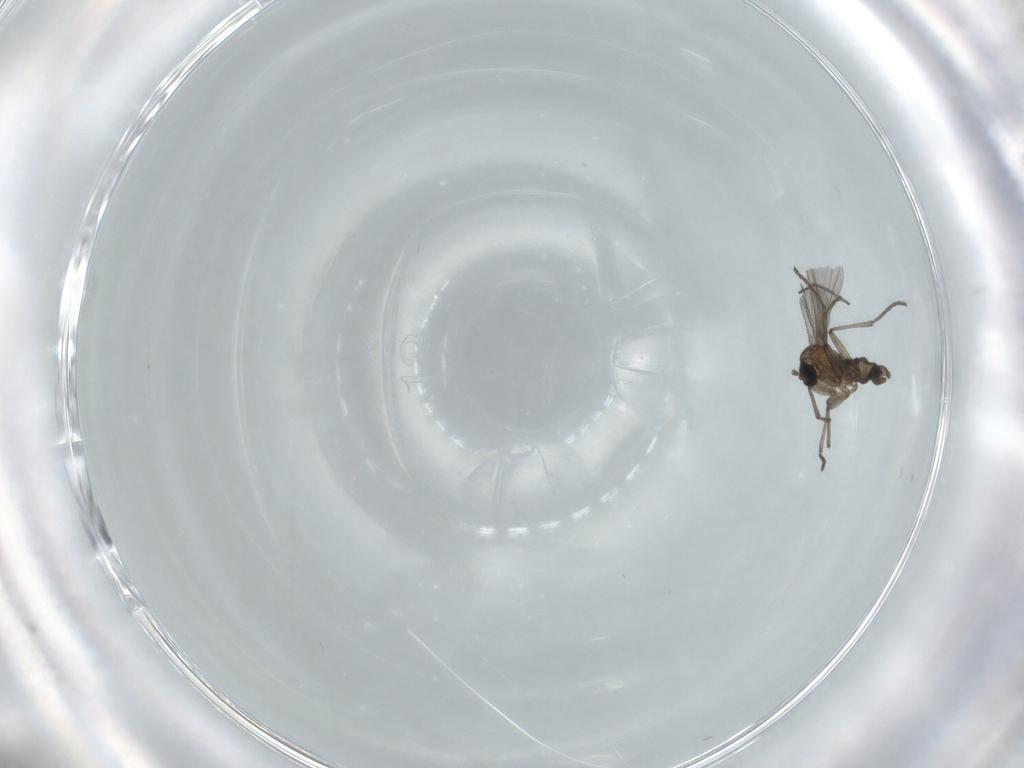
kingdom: Animalia
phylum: Arthropoda
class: Insecta
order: Diptera
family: Sciaridae
